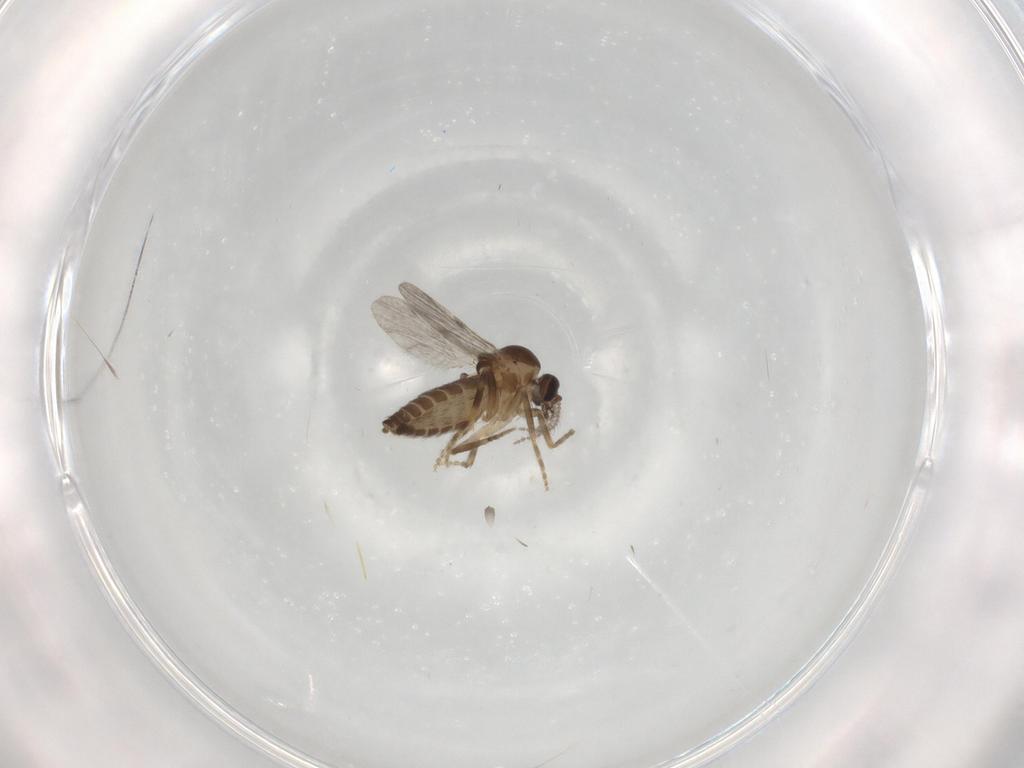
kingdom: Animalia
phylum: Arthropoda
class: Insecta
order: Diptera
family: Ceratopogonidae
